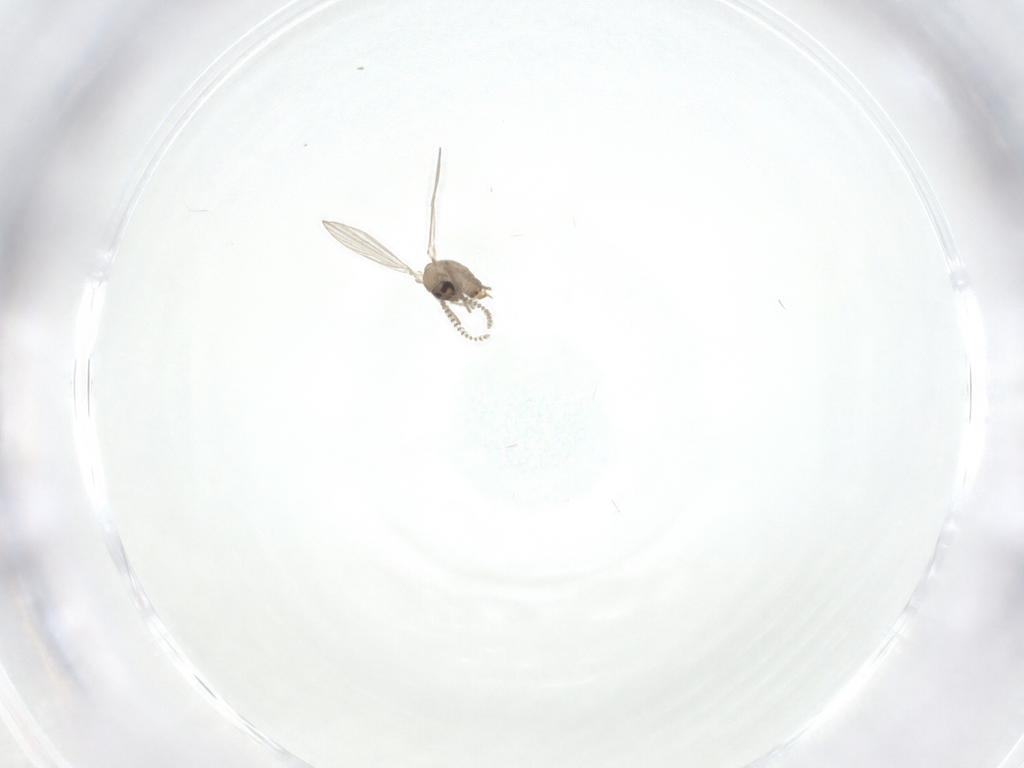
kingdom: Animalia
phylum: Arthropoda
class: Insecta
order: Diptera
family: Psychodidae
